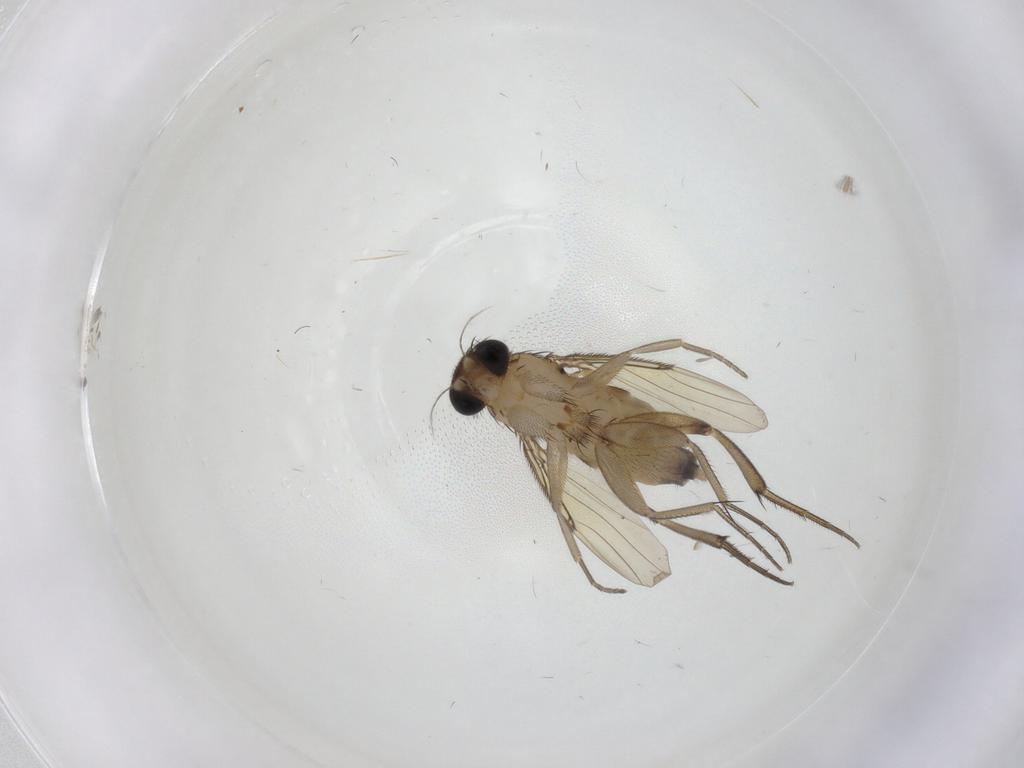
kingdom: Animalia
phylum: Arthropoda
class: Insecta
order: Diptera
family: Phoridae
